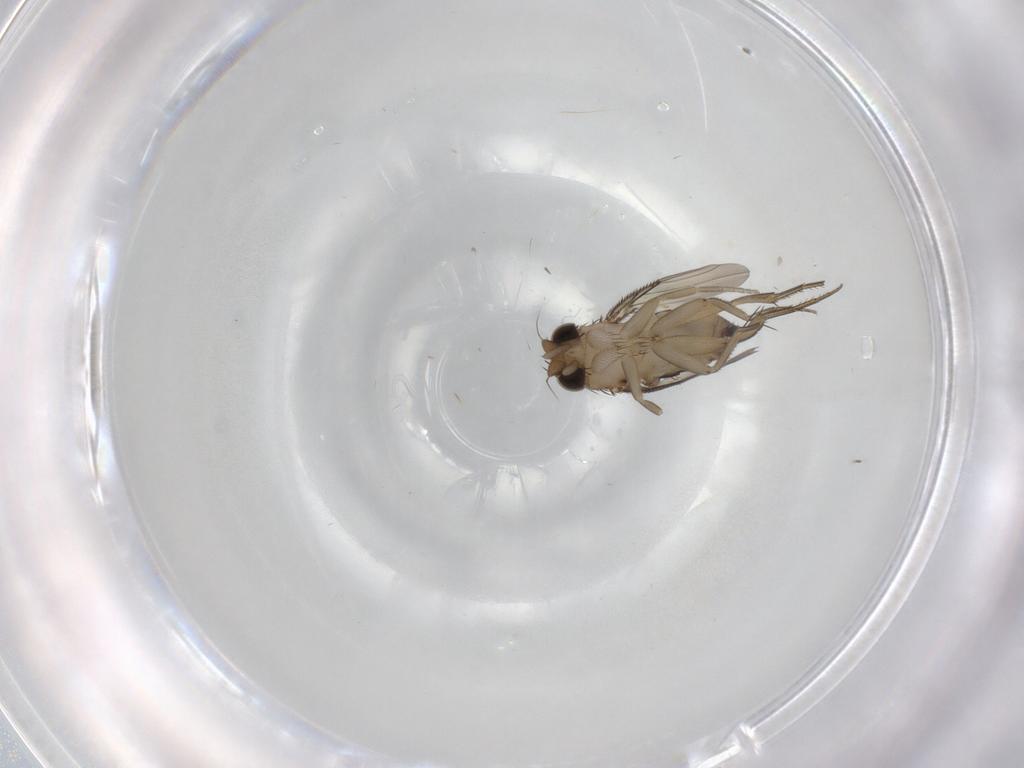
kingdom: Animalia
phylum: Arthropoda
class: Insecta
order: Diptera
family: Phoridae
